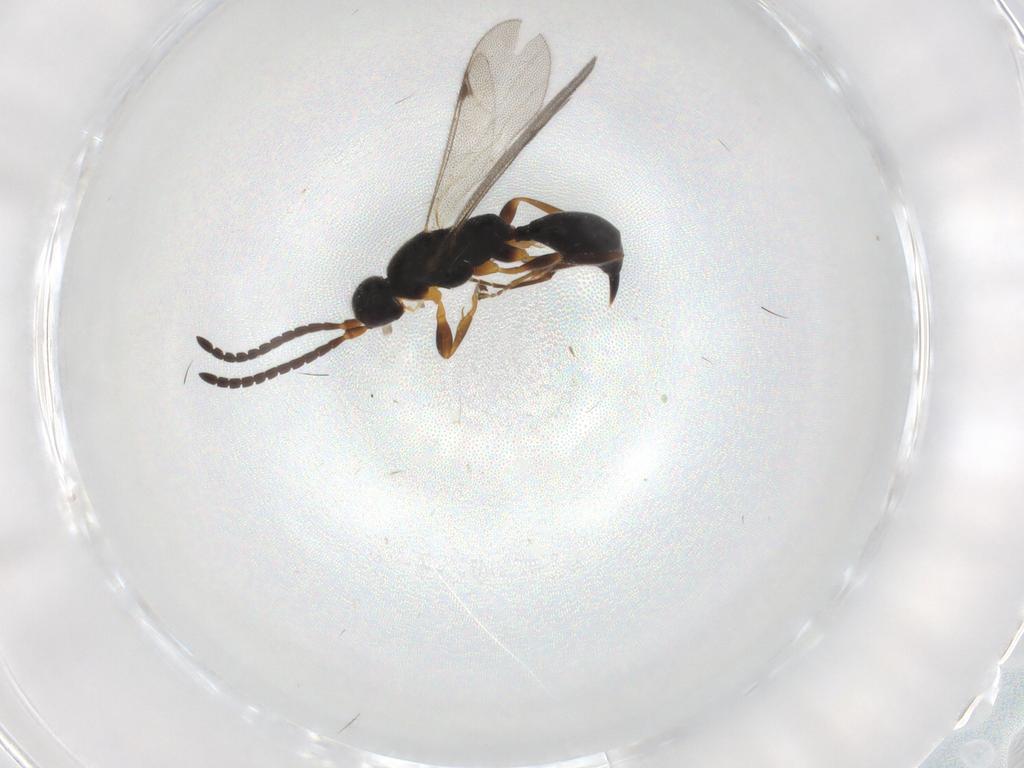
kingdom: Animalia
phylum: Arthropoda
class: Insecta
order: Hymenoptera
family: Proctotrupidae
